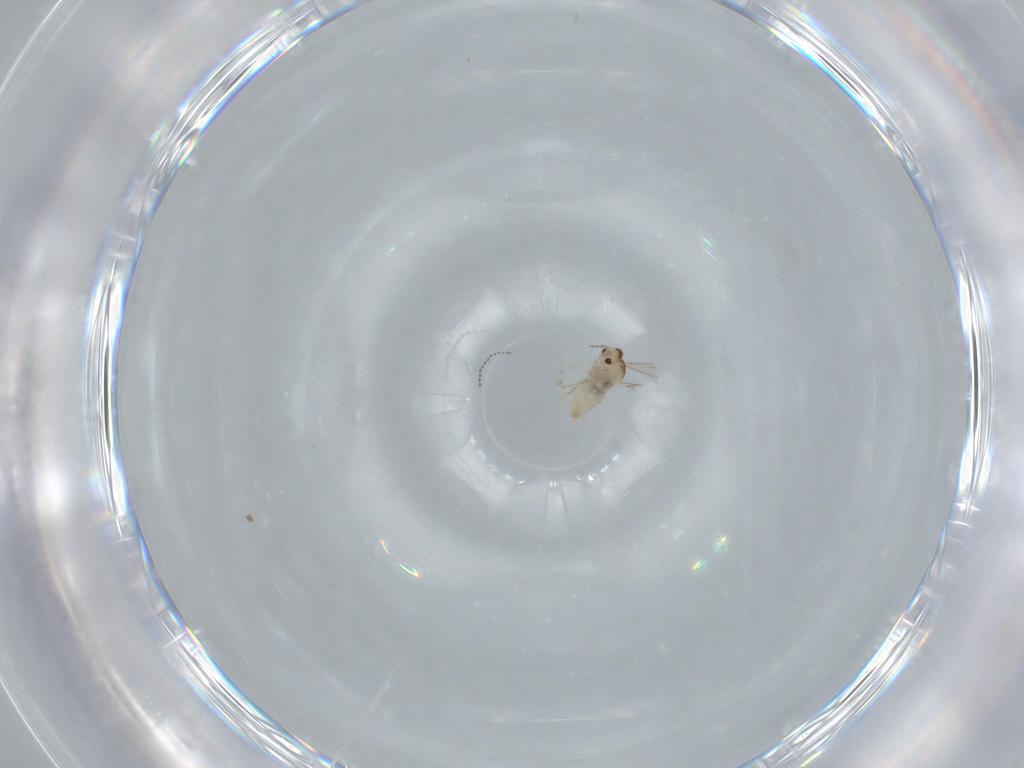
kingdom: Animalia
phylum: Arthropoda
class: Insecta
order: Diptera
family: Cecidomyiidae
